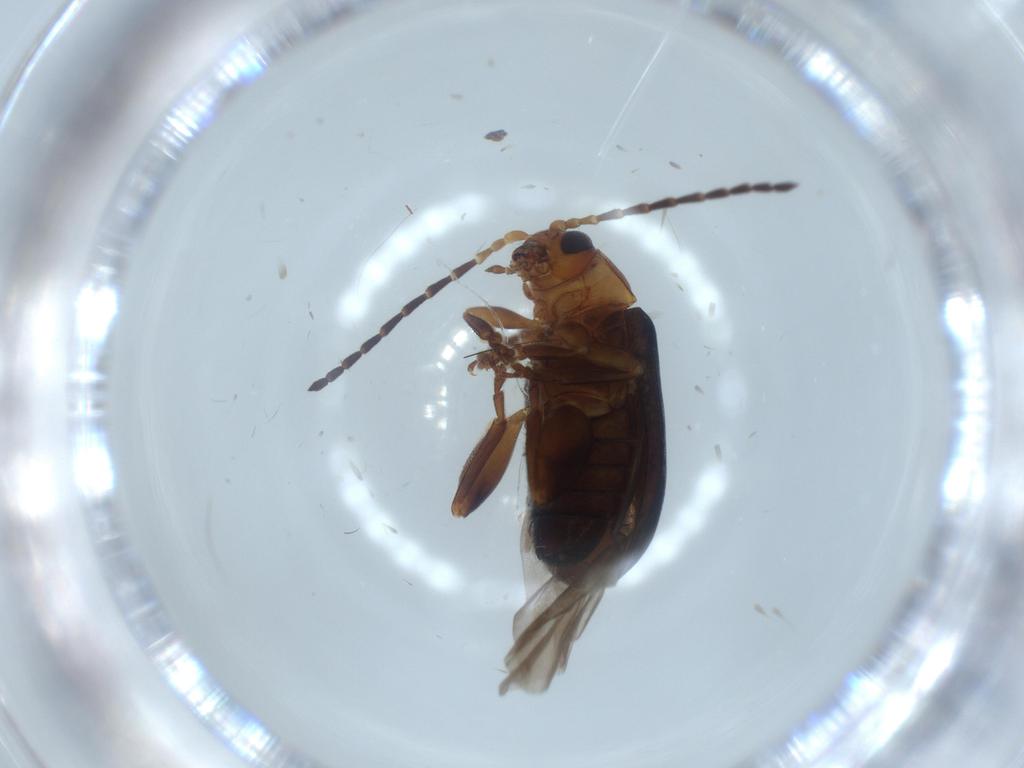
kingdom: Animalia
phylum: Arthropoda
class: Insecta
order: Coleoptera
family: Chrysomelidae
